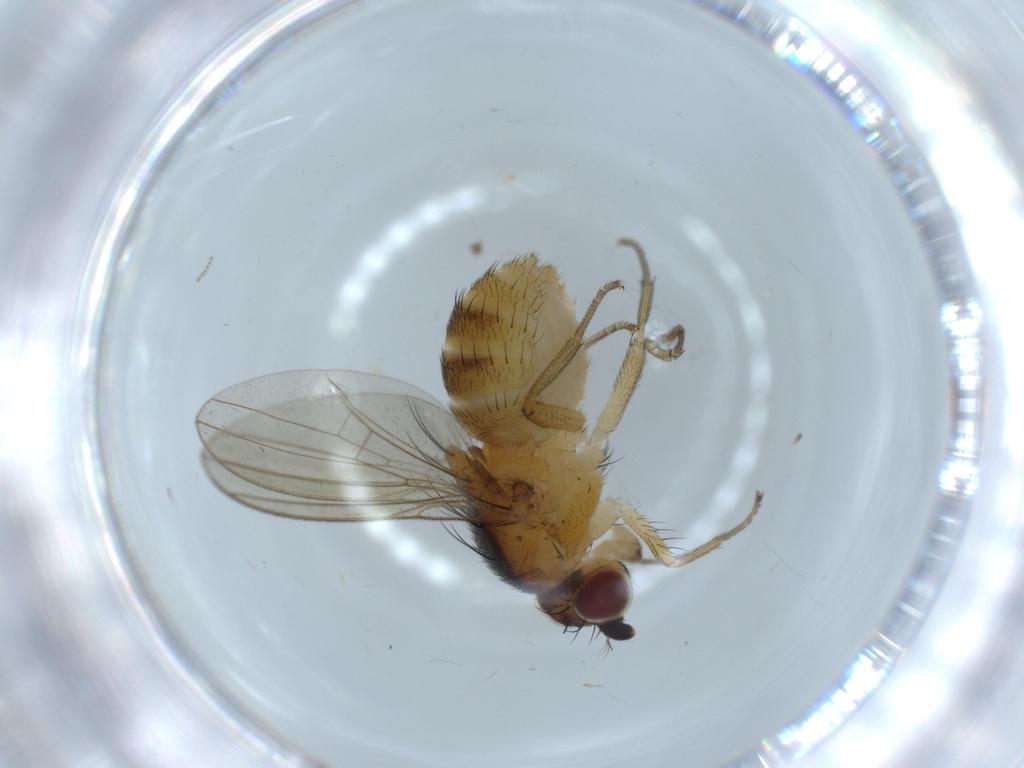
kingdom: Animalia
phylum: Arthropoda
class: Insecta
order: Diptera
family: Lauxaniidae
